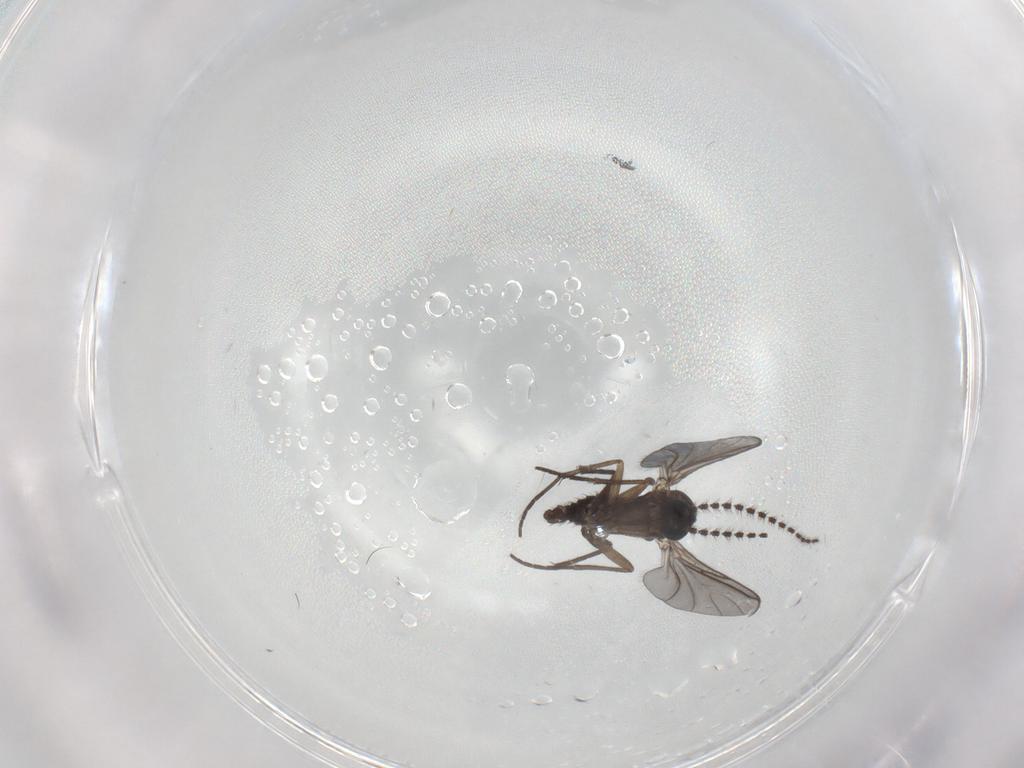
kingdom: Animalia
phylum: Arthropoda
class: Insecta
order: Diptera
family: Sciaridae
